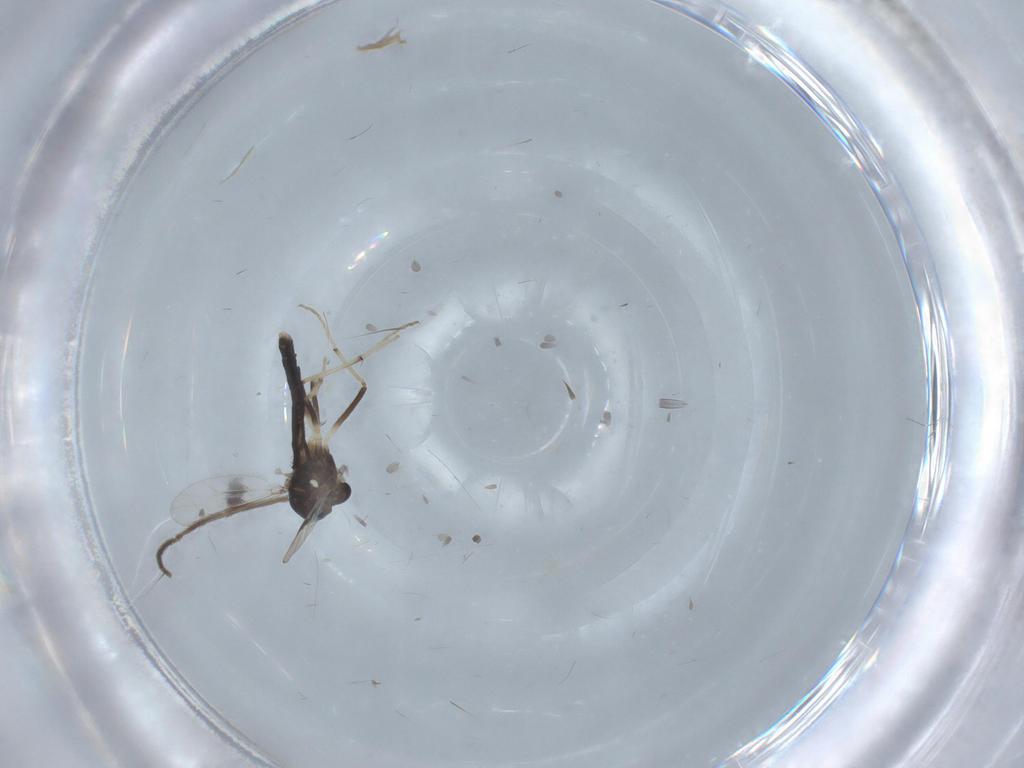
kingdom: Animalia
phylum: Arthropoda
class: Insecta
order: Diptera
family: Chironomidae
